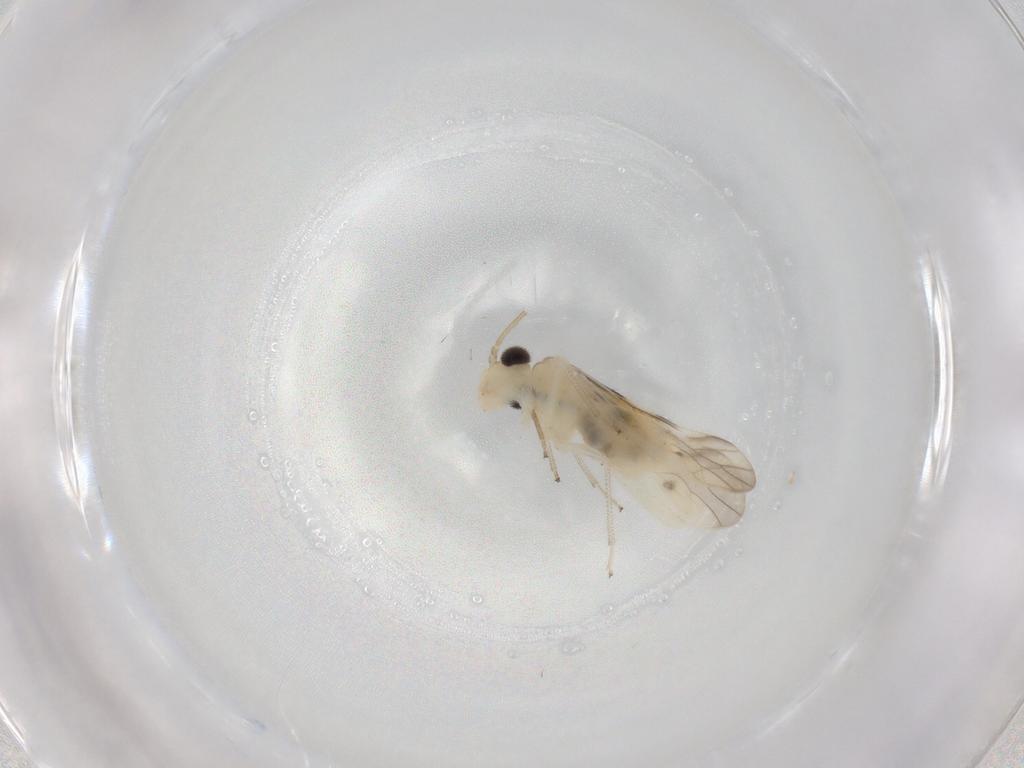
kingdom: Animalia
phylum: Arthropoda
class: Insecta
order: Psocodea
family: Caeciliusidae
